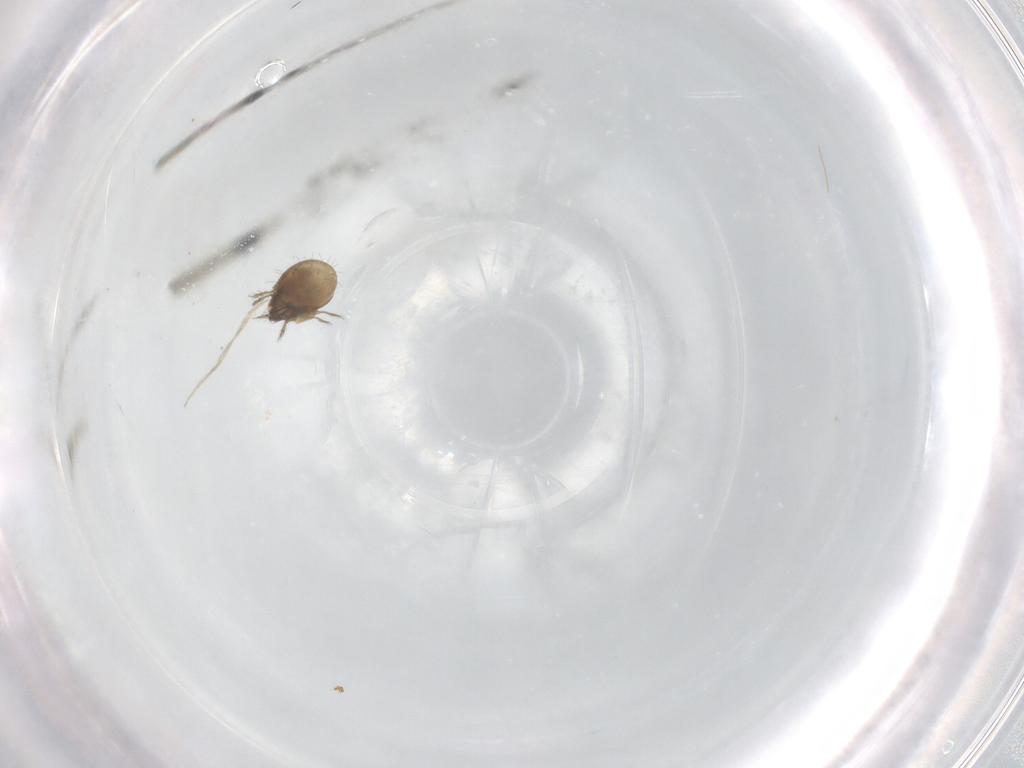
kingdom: Animalia
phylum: Arthropoda
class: Arachnida
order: Sarcoptiformes
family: Humerobatidae
